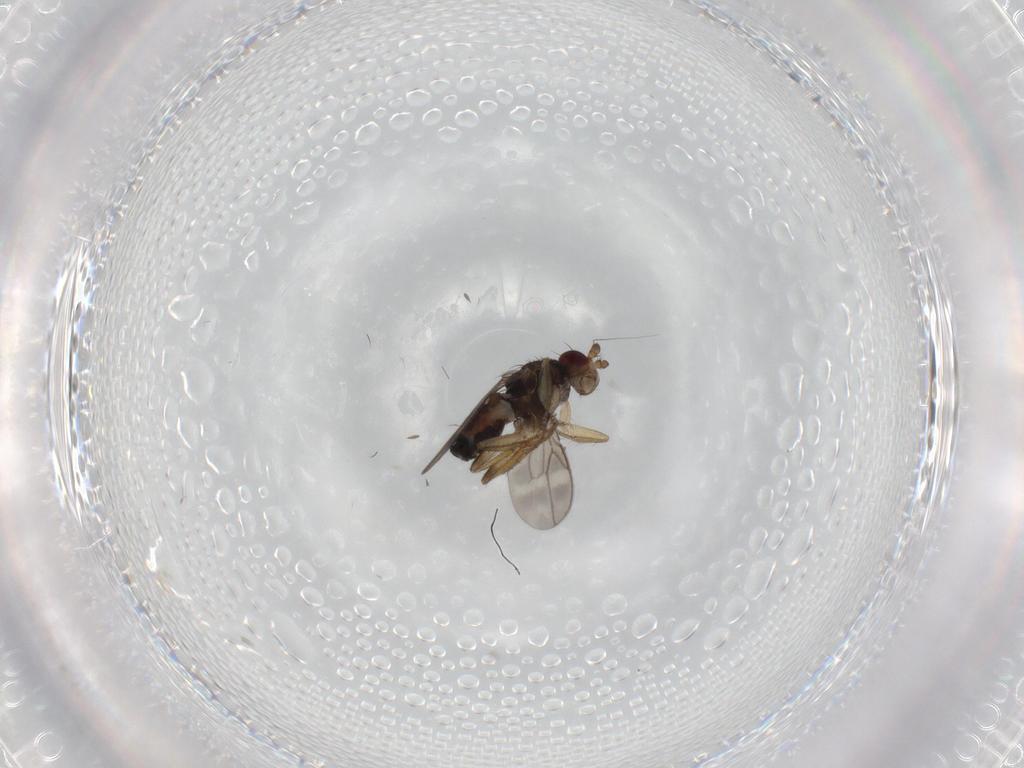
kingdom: Animalia
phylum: Arthropoda
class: Insecta
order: Diptera
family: Sphaeroceridae
